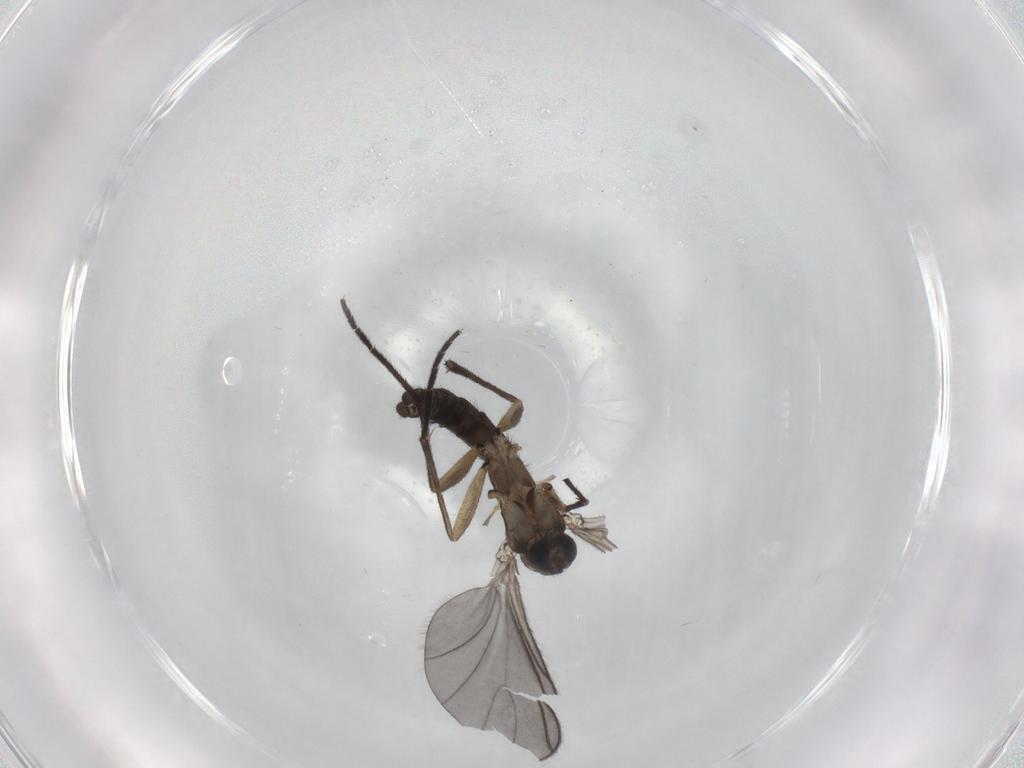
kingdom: Animalia
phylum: Arthropoda
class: Insecta
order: Diptera
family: Sciaridae
